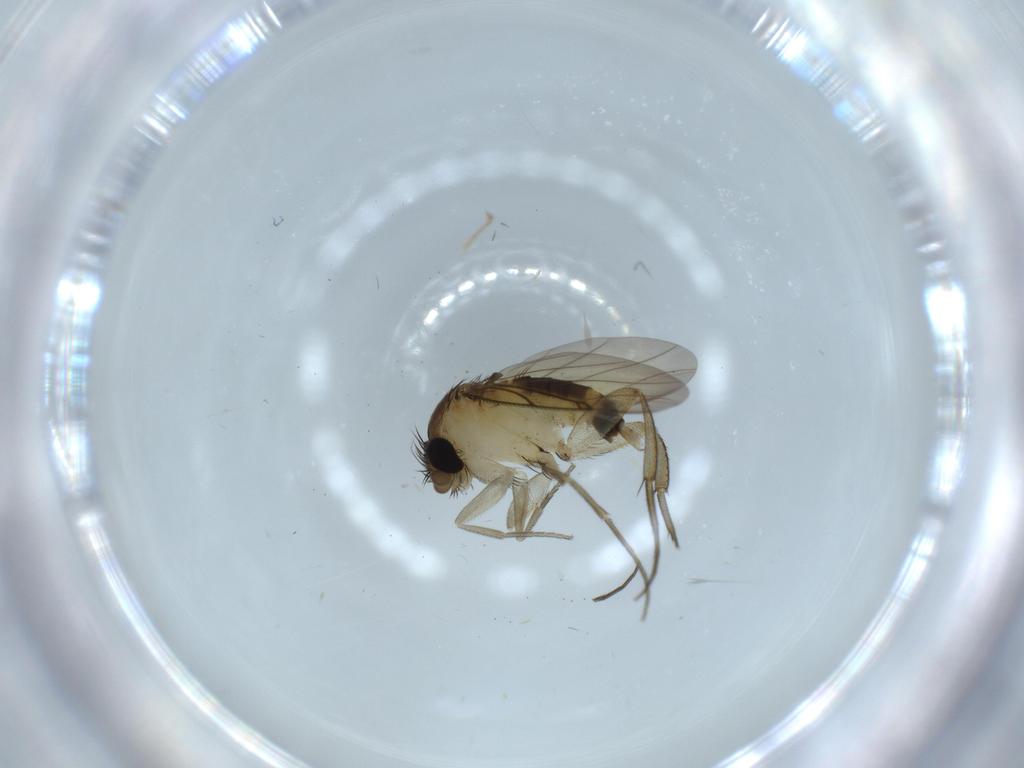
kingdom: Animalia
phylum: Arthropoda
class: Insecta
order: Diptera
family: Phoridae
